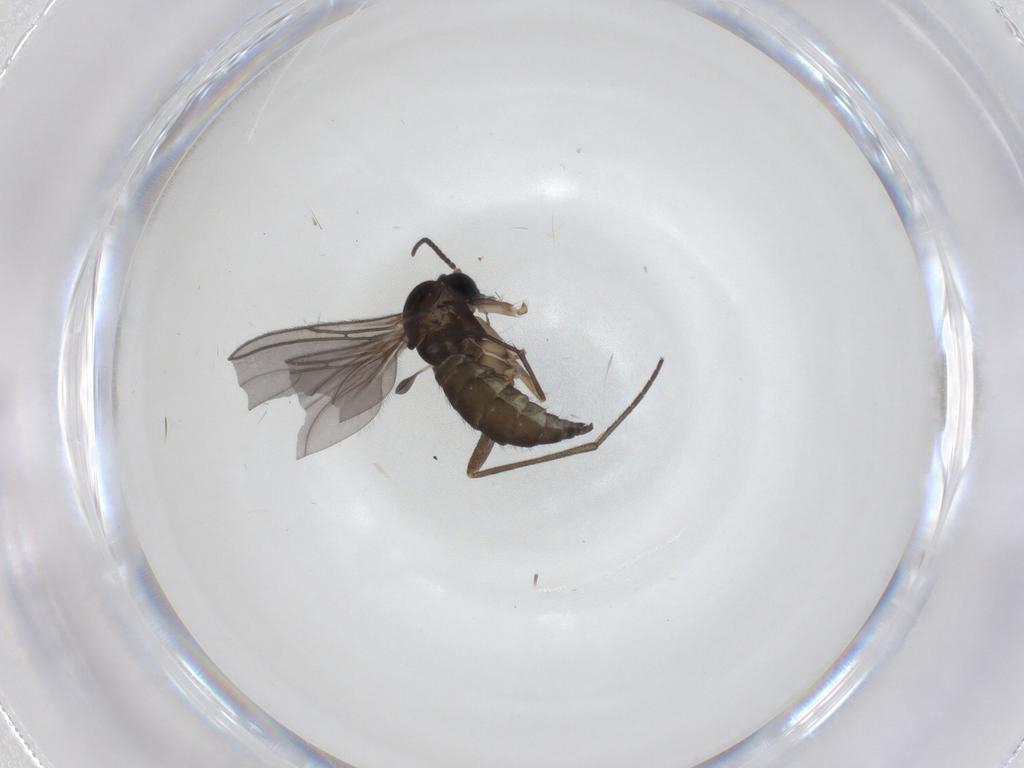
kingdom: Animalia
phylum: Arthropoda
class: Insecta
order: Diptera
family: Sciaridae
